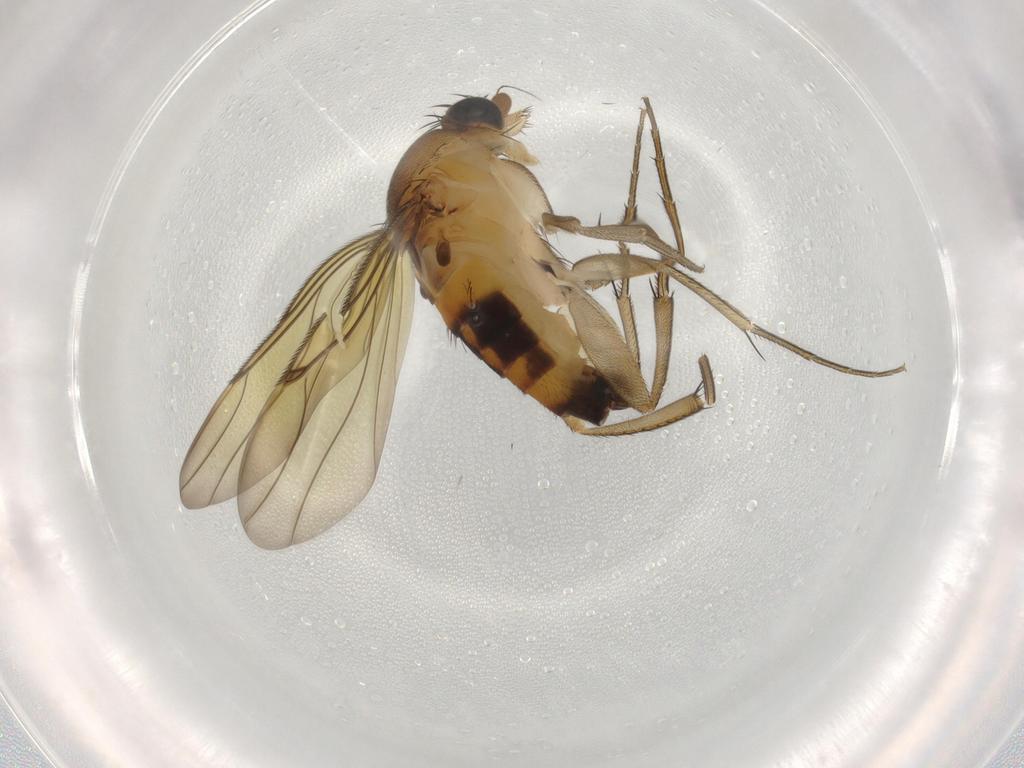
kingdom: Animalia
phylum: Arthropoda
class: Insecta
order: Diptera
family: Phoridae
